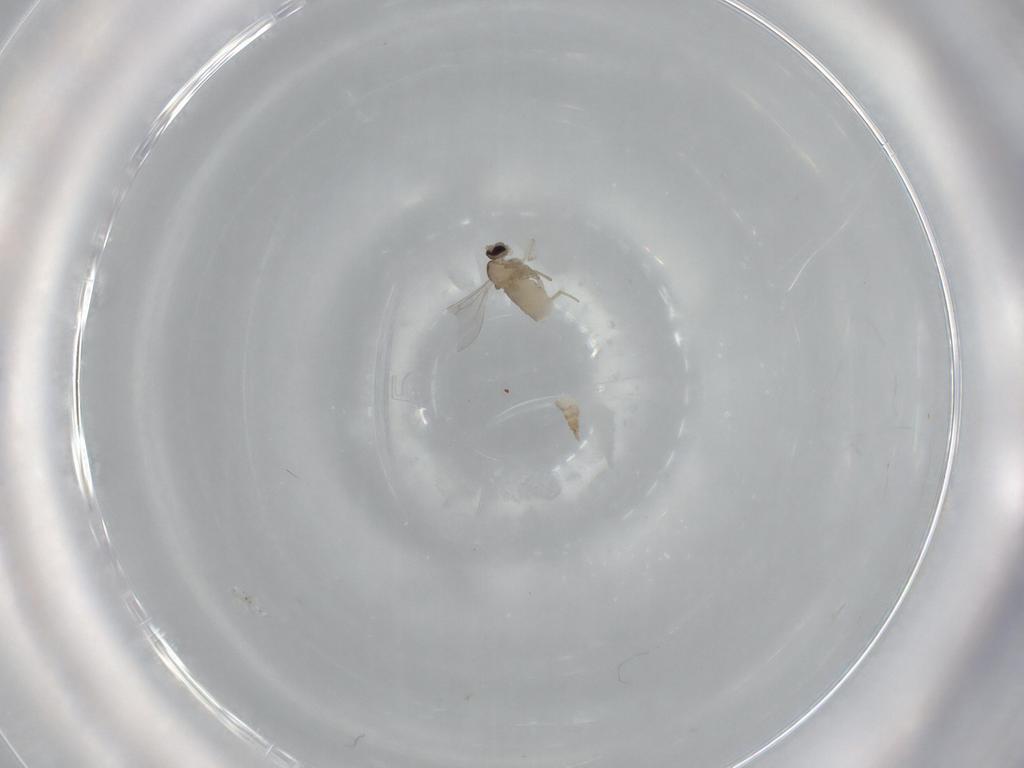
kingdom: Animalia
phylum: Arthropoda
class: Insecta
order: Diptera
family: Cecidomyiidae
